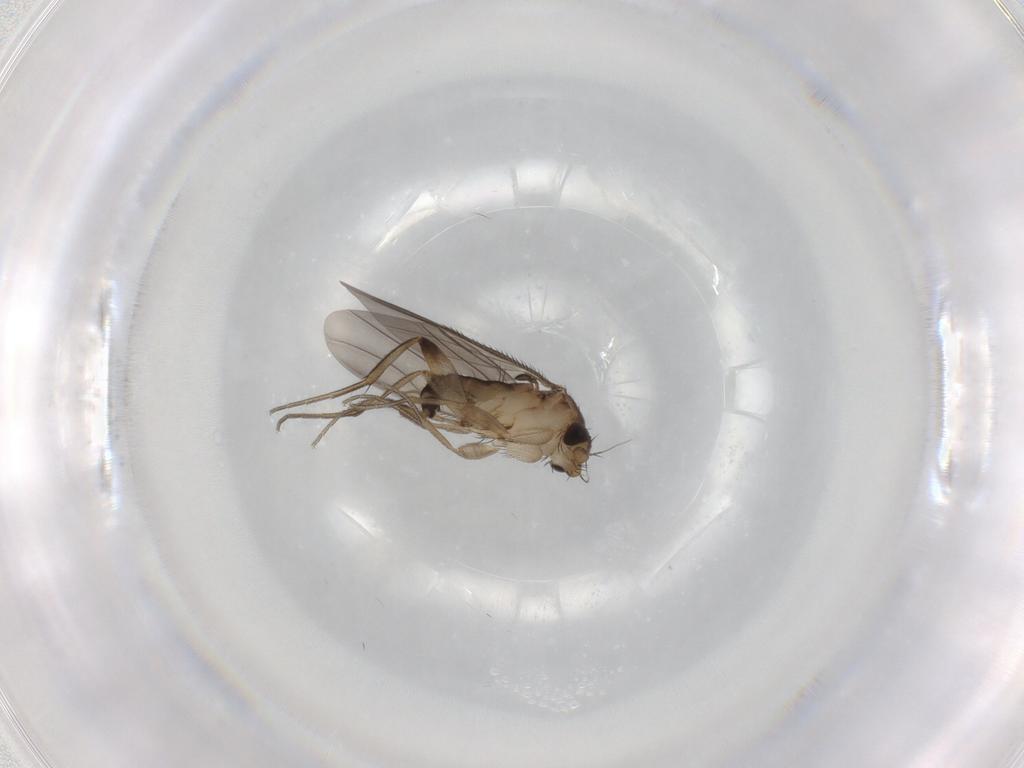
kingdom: Animalia
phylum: Arthropoda
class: Insecta
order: Diptera
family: Phoridae
